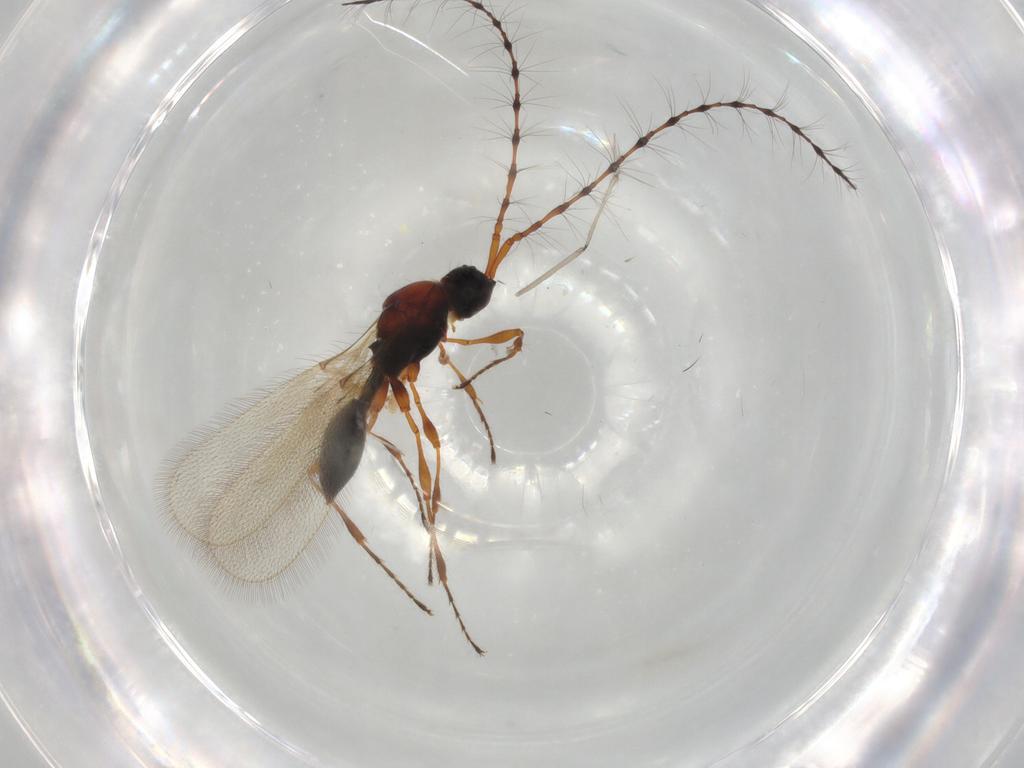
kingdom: Animalia
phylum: Arthropoda
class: Insecta
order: Hymenoptera
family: Diapriidae
